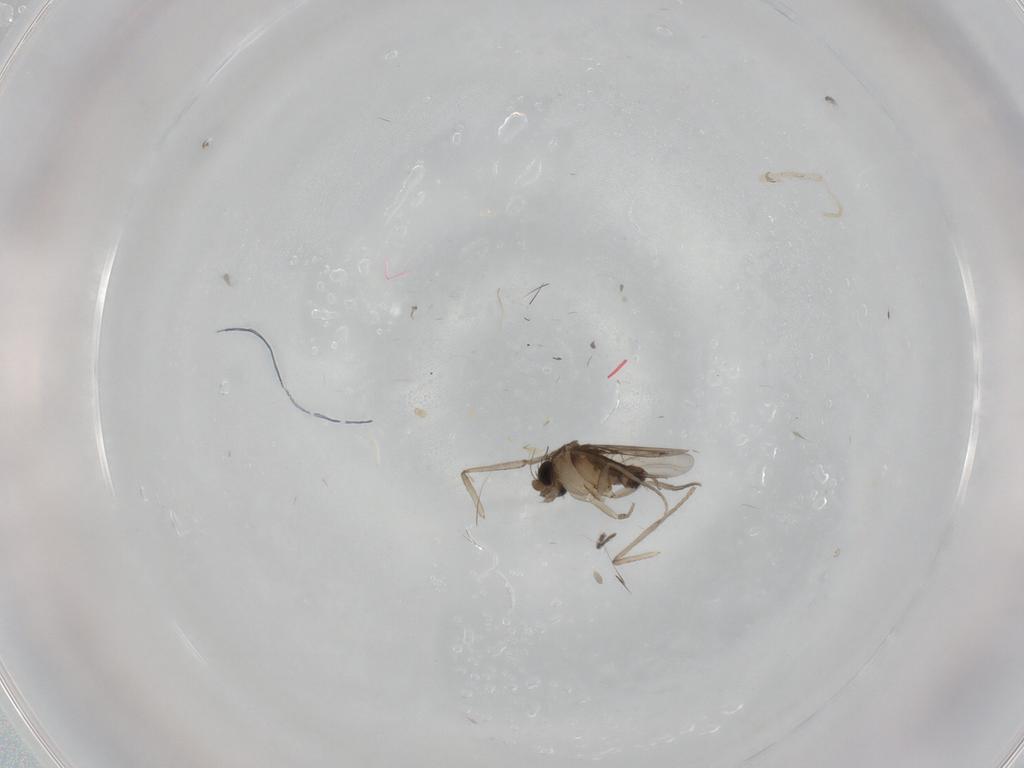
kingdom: Animalia
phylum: Arthropoda
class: Insecta
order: Diptera
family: Phoridae
